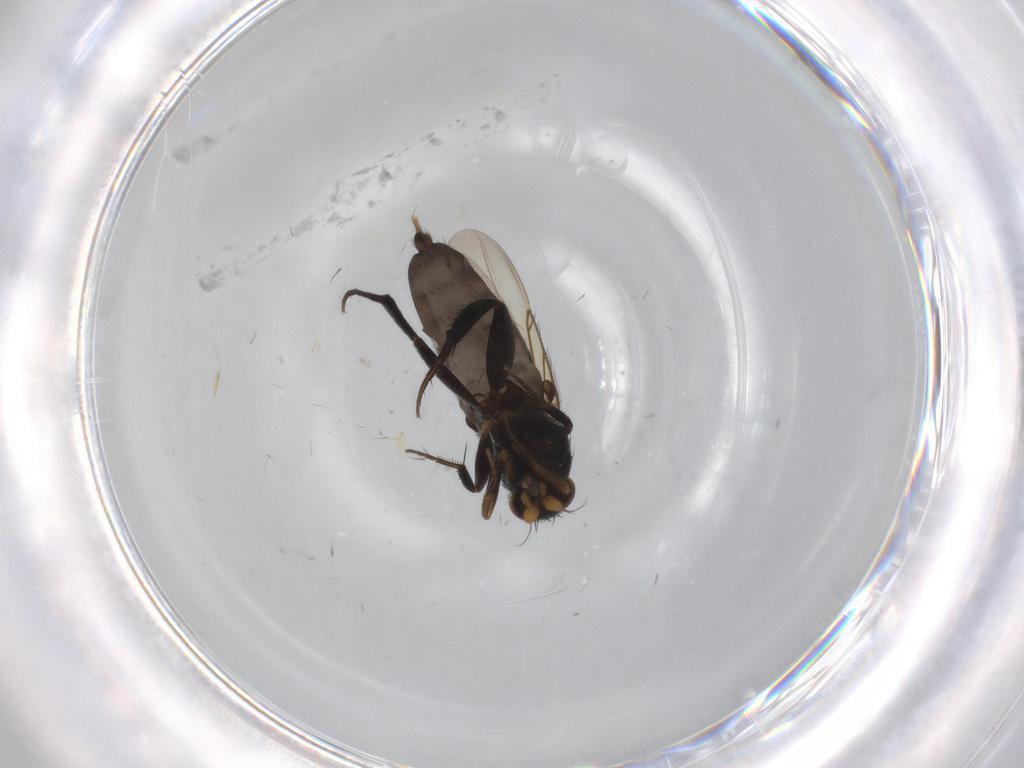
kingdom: Animalia
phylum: Arthropoda
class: Insecta
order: Diptera
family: Phoridae
